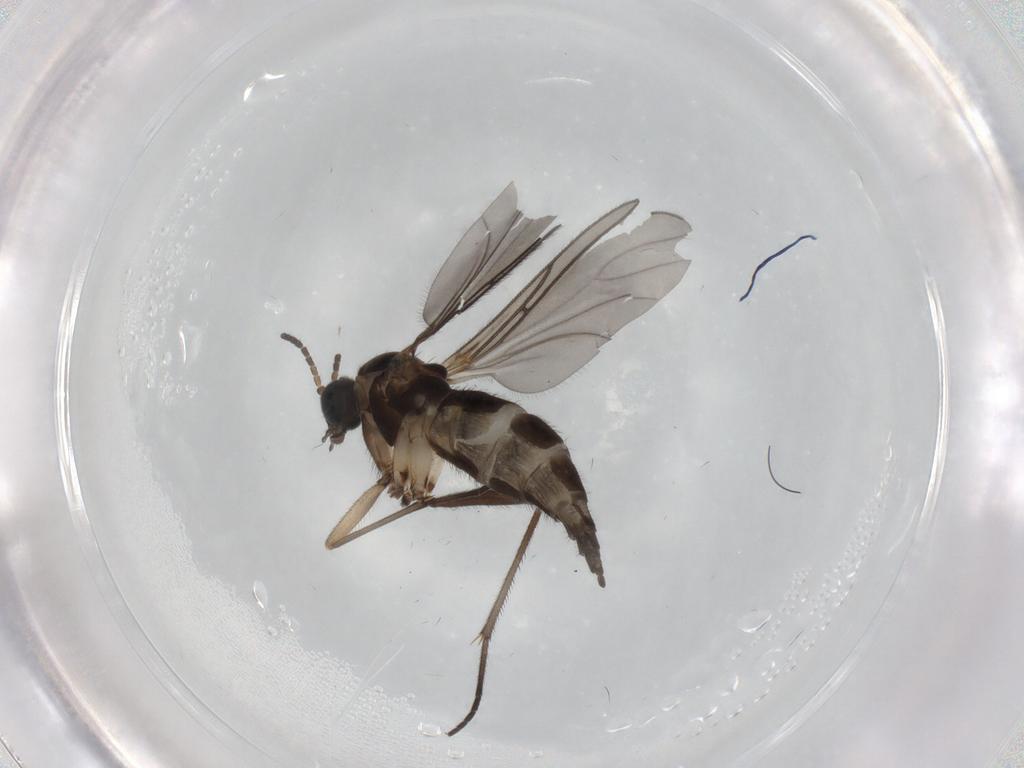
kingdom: Animalia
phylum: Arthropoda
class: Insecta
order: Diptera
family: Sciaridae
